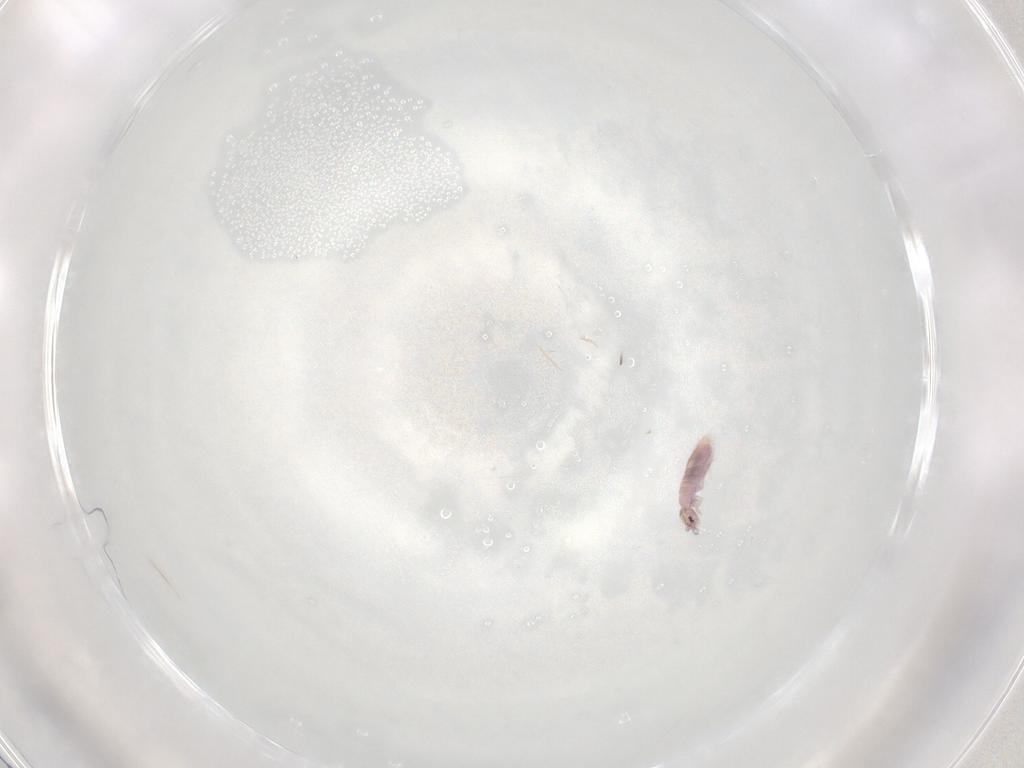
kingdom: Animalia
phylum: Arthropoda
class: Collembola
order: Entomobryomorpha
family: Entomobryidae
